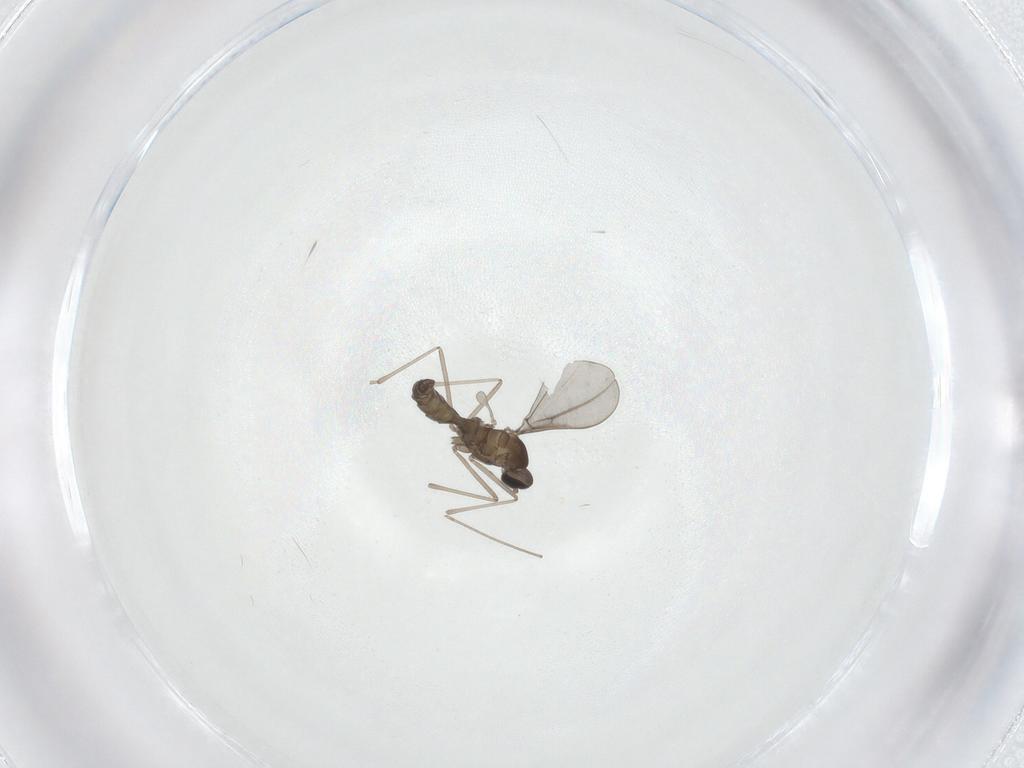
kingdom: Animalia
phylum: Arthropoda
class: Insecta
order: Diptera
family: Cecidomyiidae
